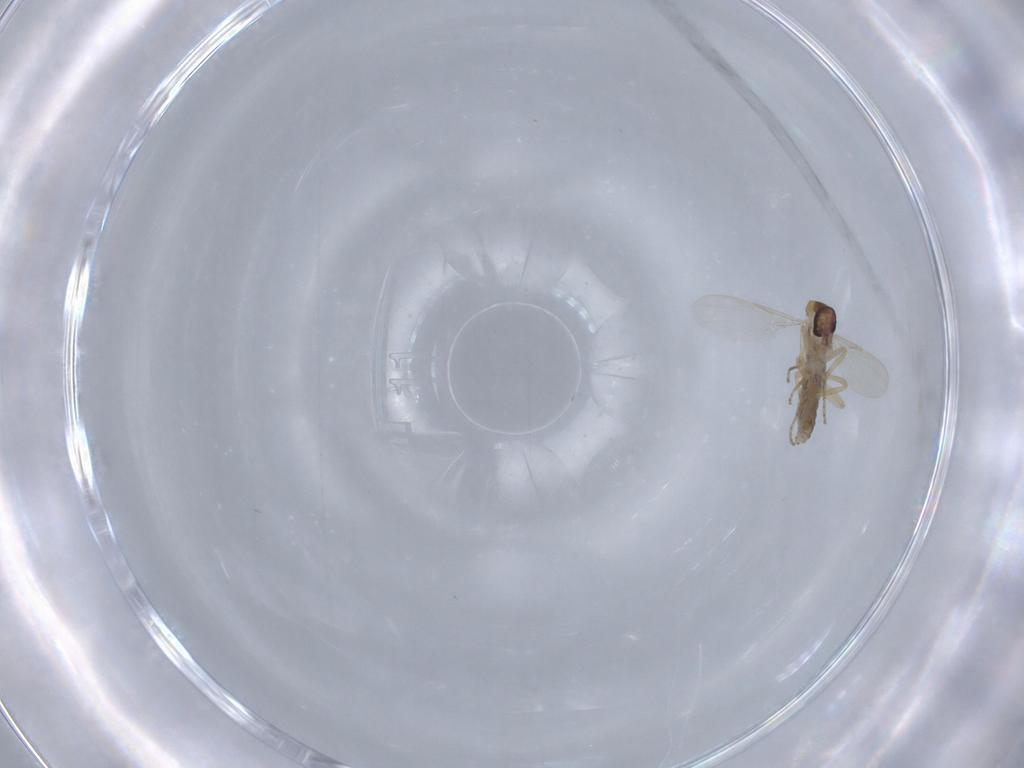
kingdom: Animalia
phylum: Arthropoda
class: Insecta
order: Diptera
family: Ceratopogonidae
